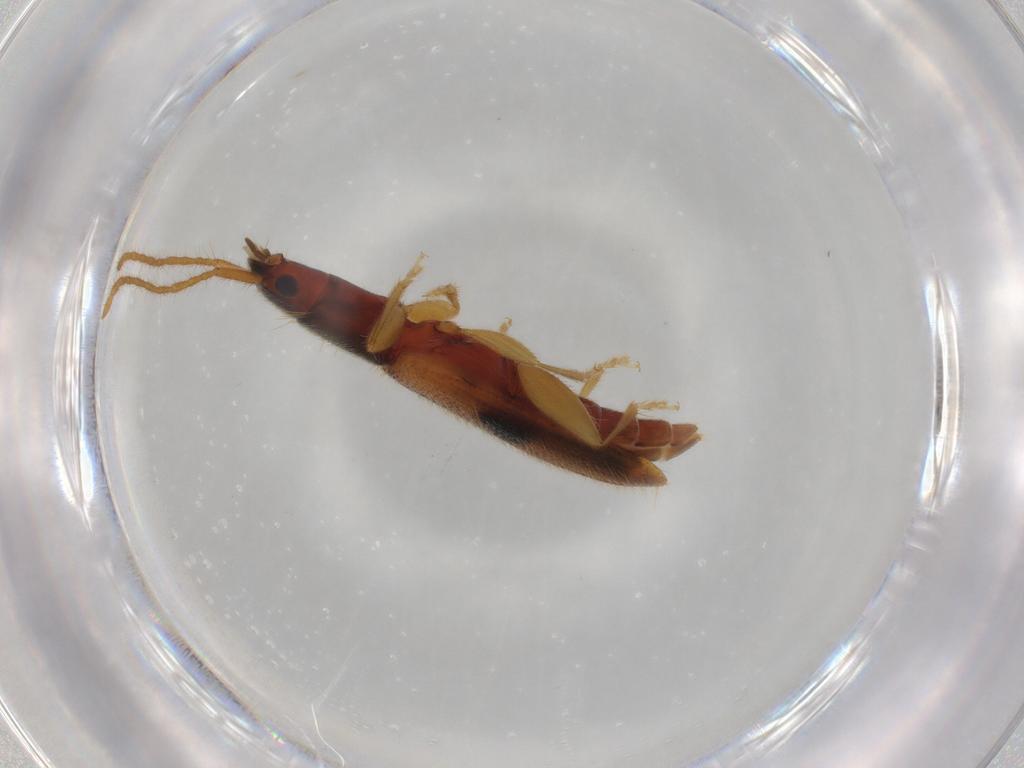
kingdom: Animalia
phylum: Arthropoda
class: Insecta
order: Coleoptera
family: Silvanidae
